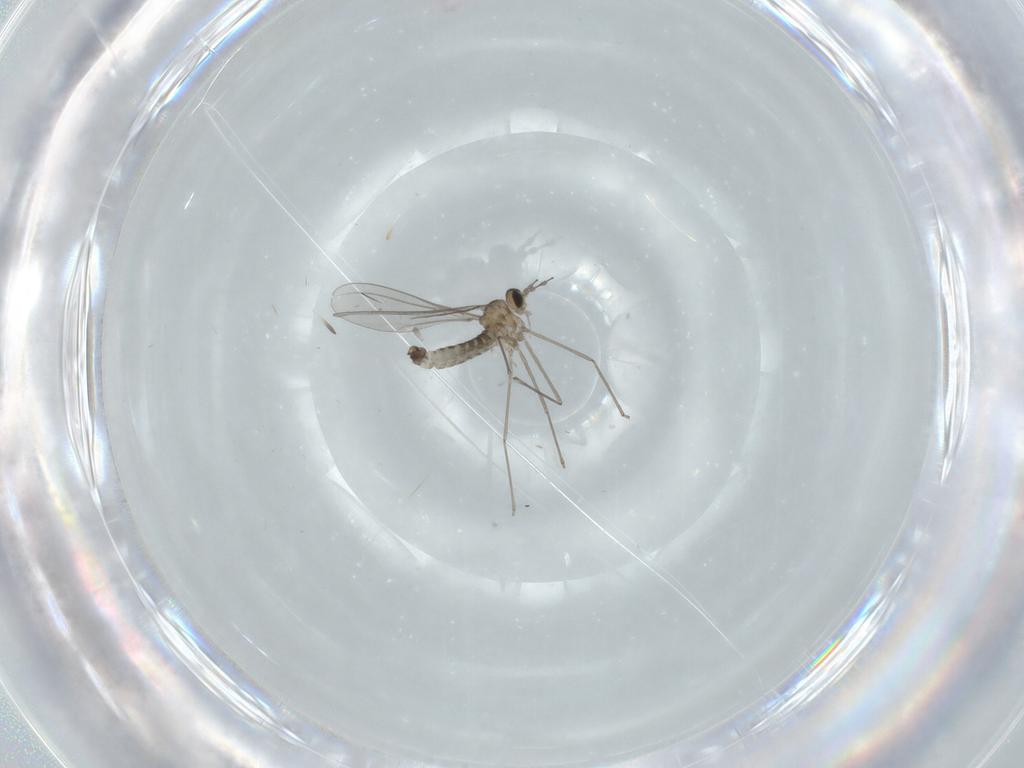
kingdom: Animalia
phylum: Arthropoda
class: Insecta
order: Diptera
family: Cecidomyiidae
